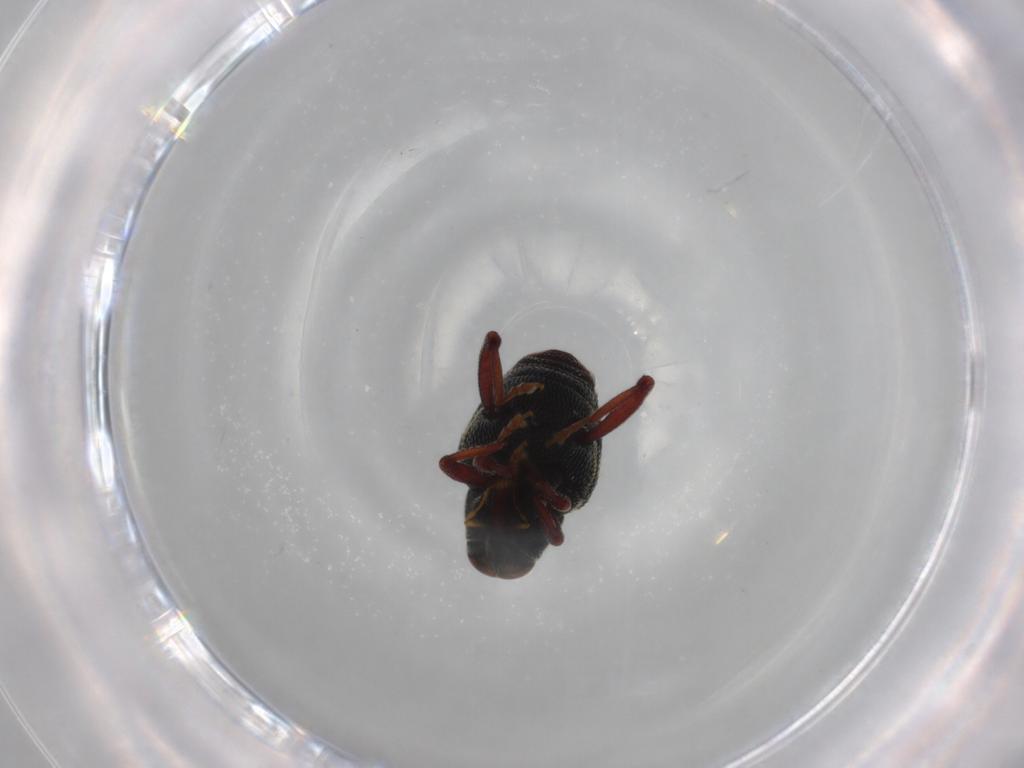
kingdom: Animalia
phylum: Arthropoda
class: Insecta
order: Coleoptera
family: Curculionidae
